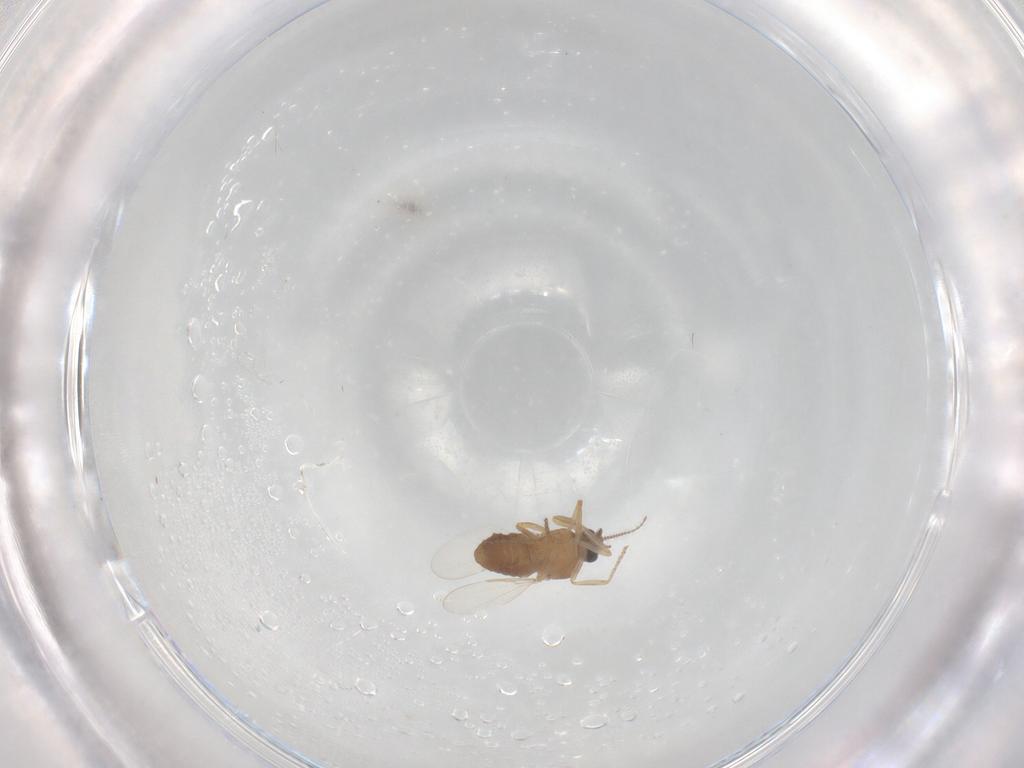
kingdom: Animalia
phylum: Arthropoda
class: Insecta
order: Diptera
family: Ceratopogonidae
